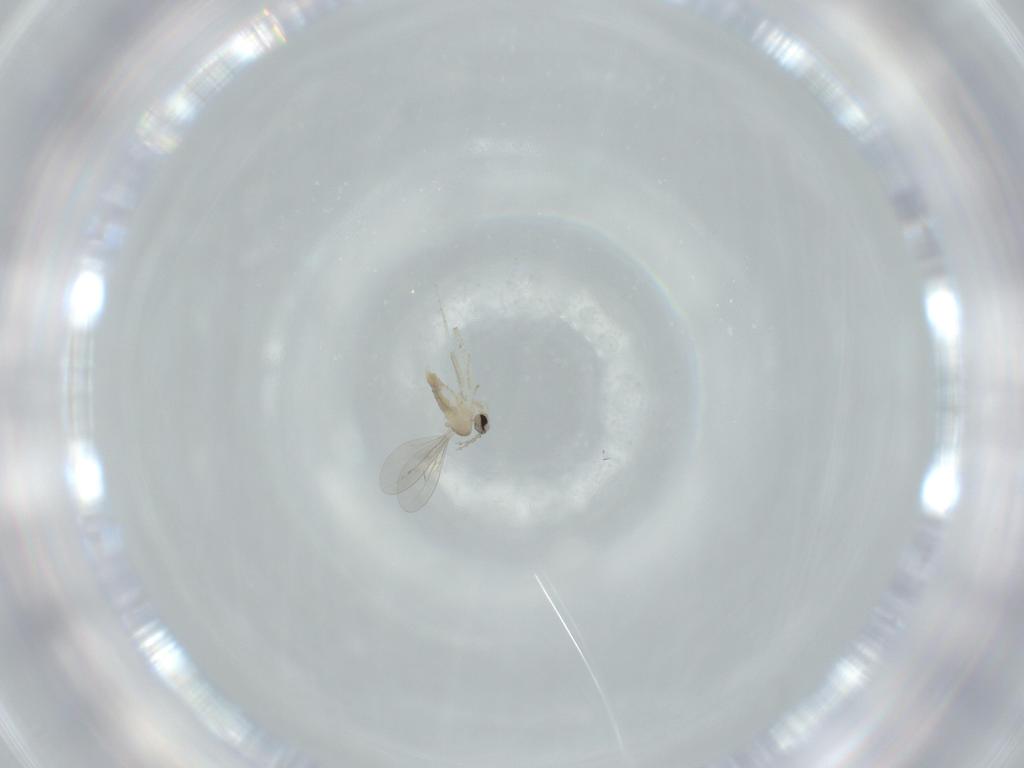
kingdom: Animalia
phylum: Arthropoda
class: Insecta
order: Diptera
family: Cecidomyiidae
